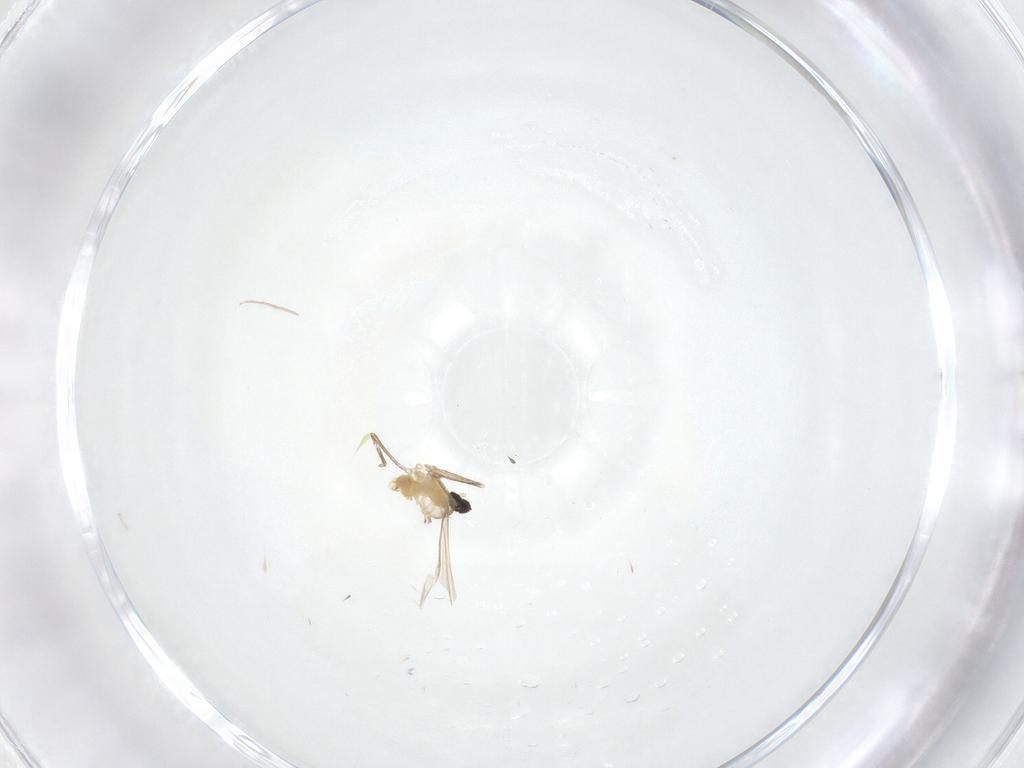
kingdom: Animalia
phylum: Arthropoda
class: Insecta
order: Diptera
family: Chironomidae
